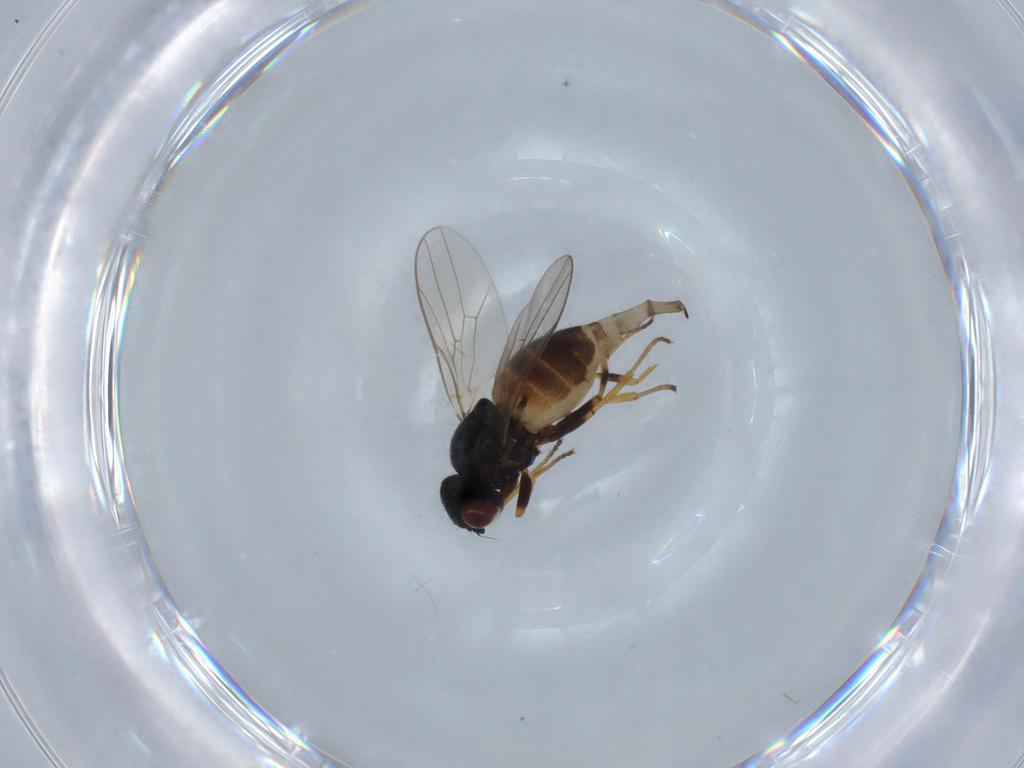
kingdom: Animalia
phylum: Arthropoda
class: Insecta
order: Diptera
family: Chloropidae
